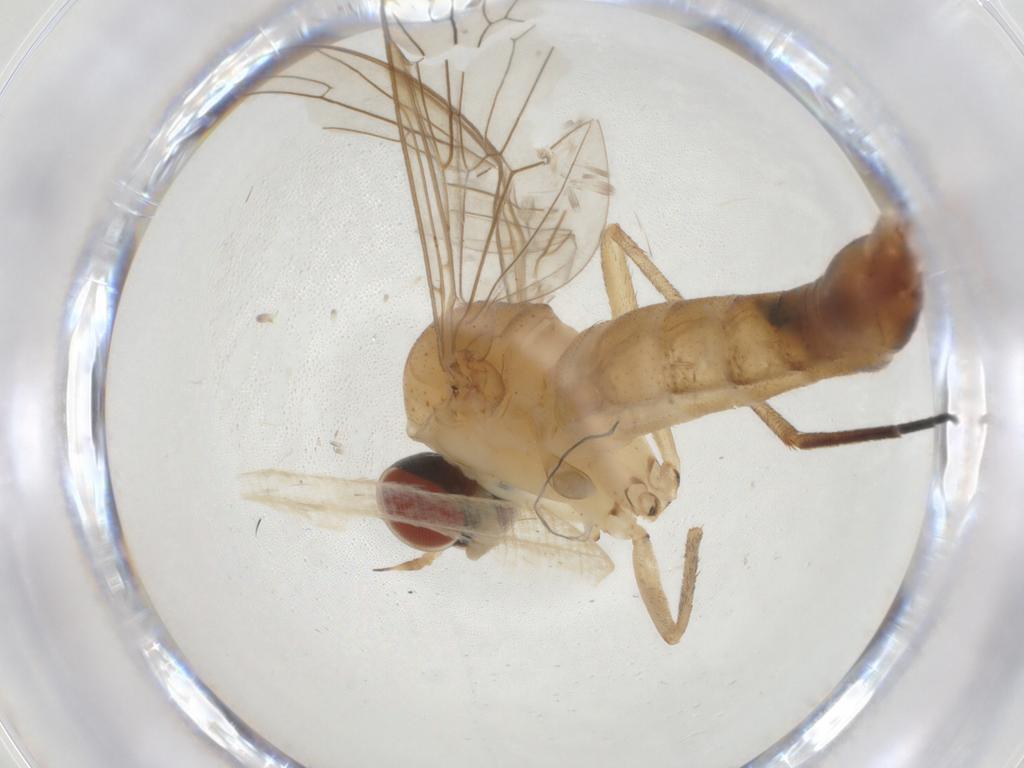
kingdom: Animalia
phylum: Arthropoda
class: Insecta
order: Diptera
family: Apsilocephalidae
